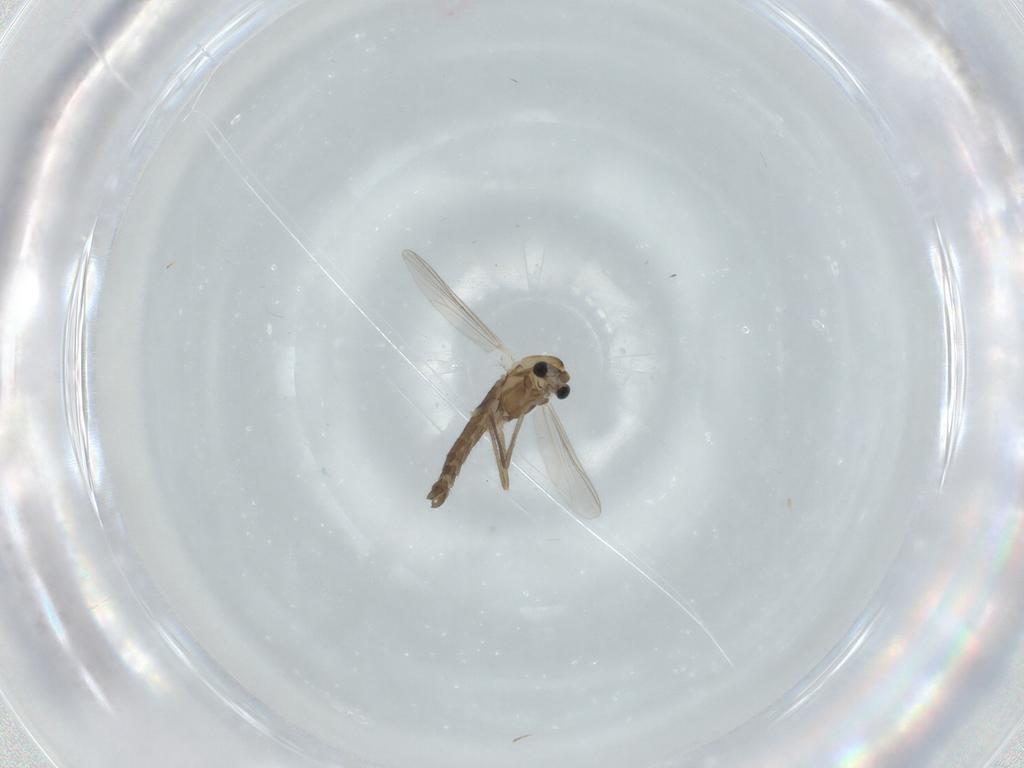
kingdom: Animalia
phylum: Arthropoda
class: Insecta
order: Diptera
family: Chironomidae
